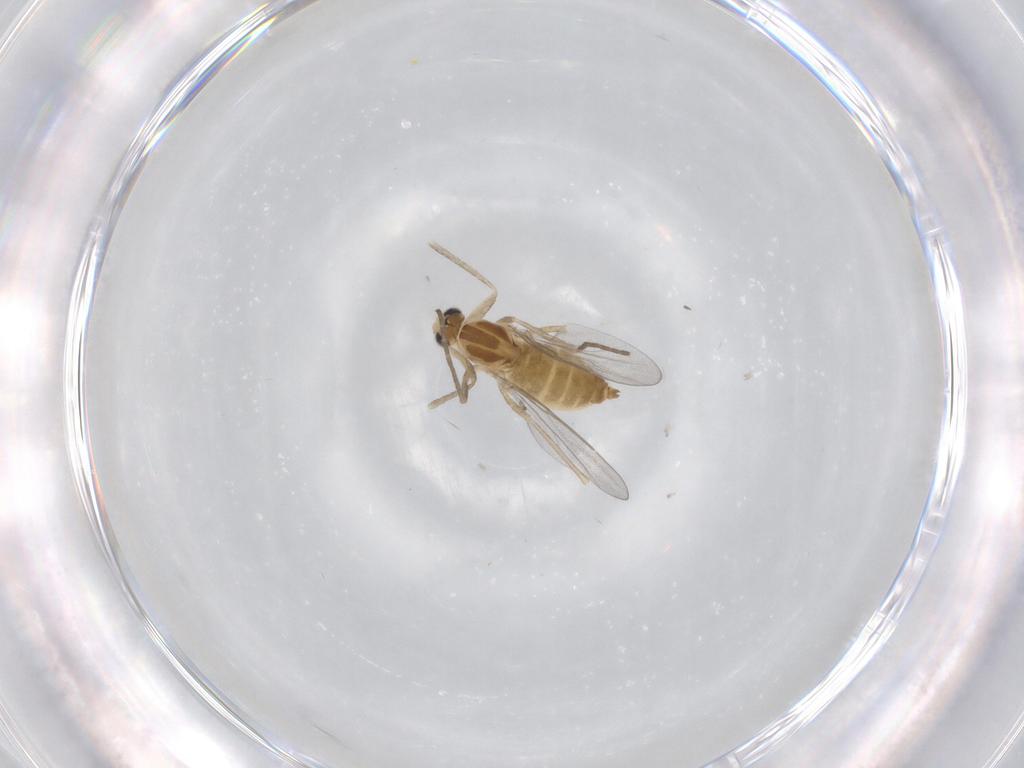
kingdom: Animalia
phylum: Arthropoda
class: Insecta
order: Diptera
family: Cecidomyiidae
